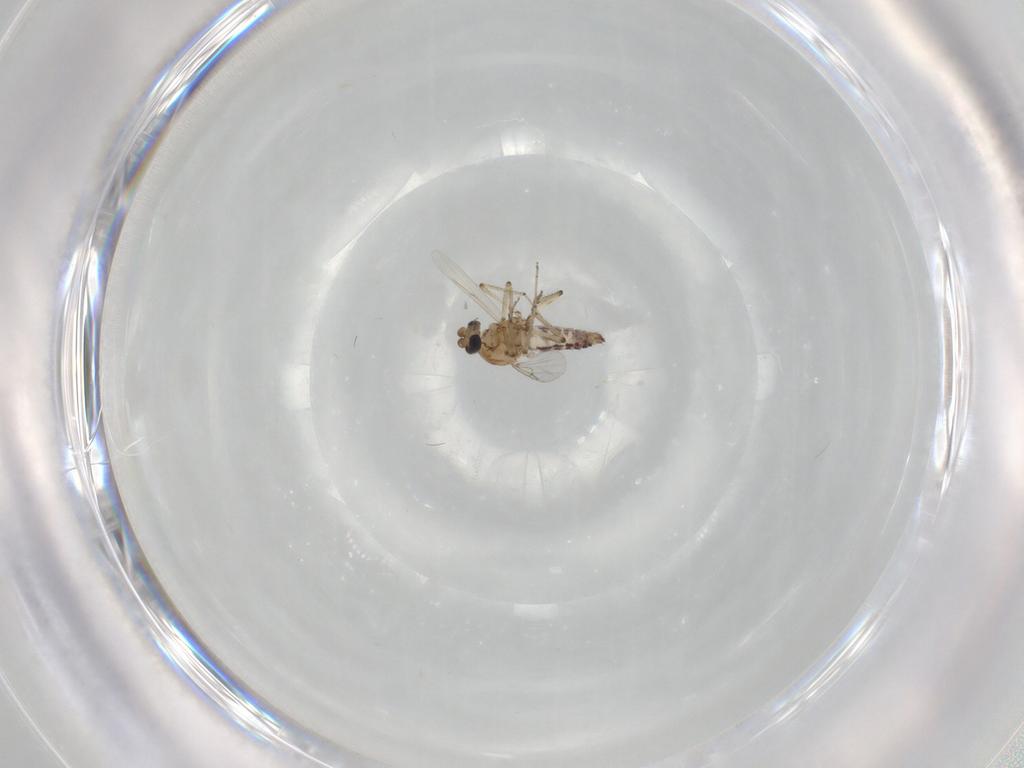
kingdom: Animalia
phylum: Arthropoda
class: Insecta
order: Diptera
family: Ceratopogonidae
